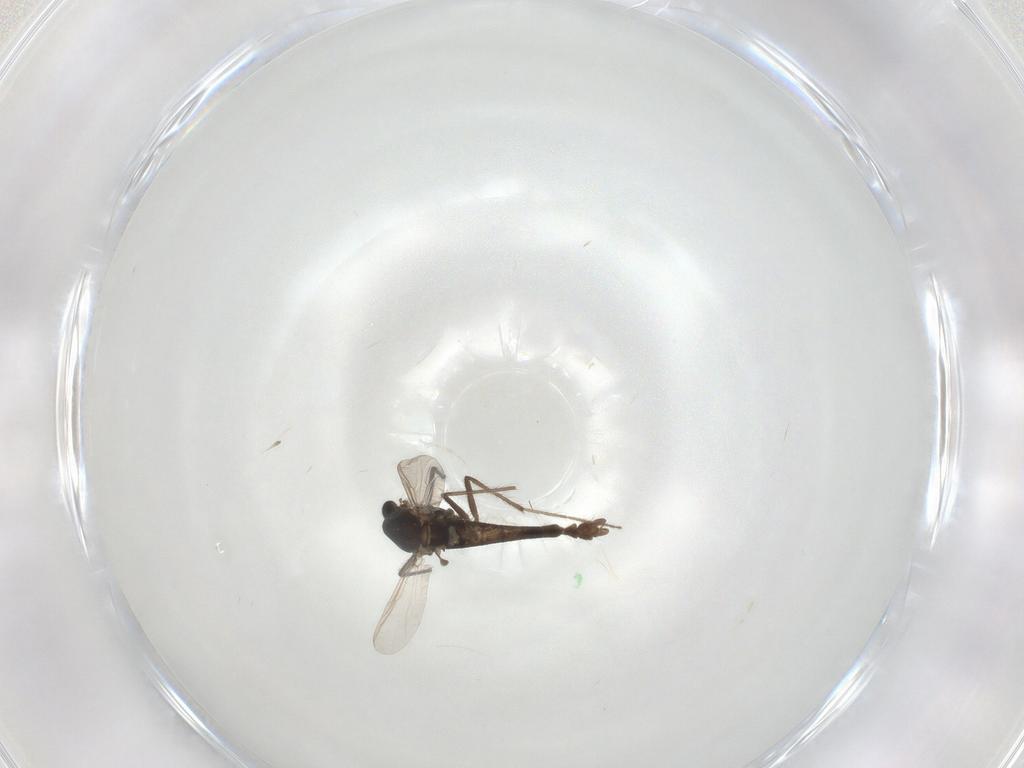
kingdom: Animalia
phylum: Arthropoda
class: Insecta
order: Diptera
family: Chironomidae
